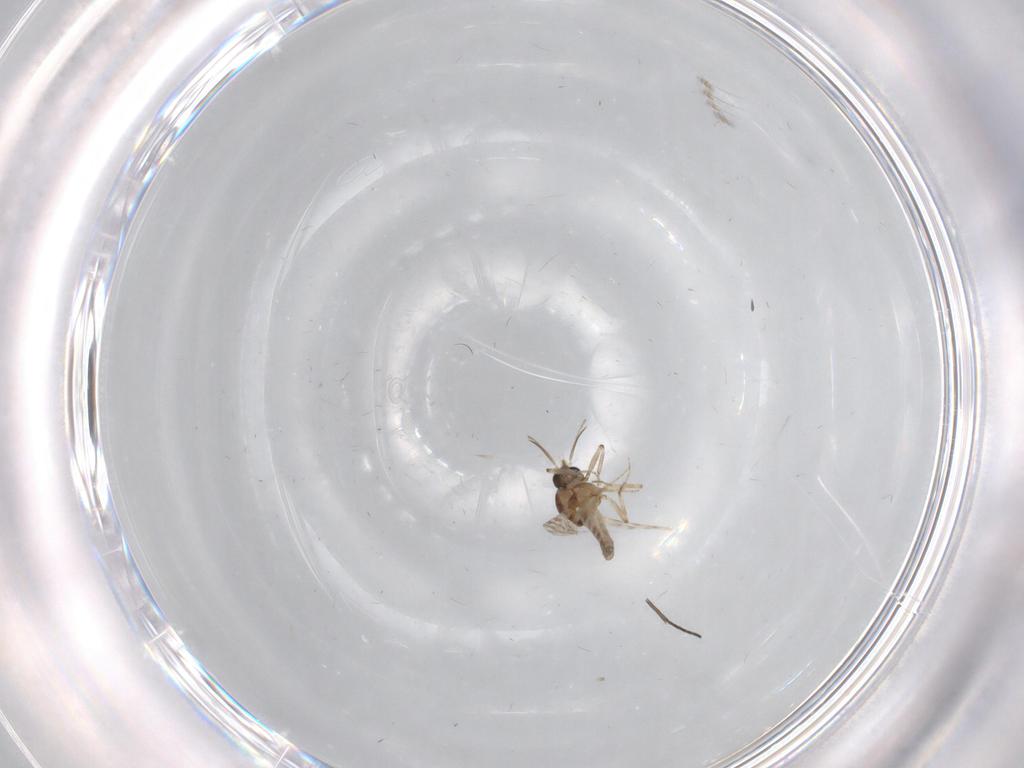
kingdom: Animalia
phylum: Arthropoda
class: Insecta
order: Diptera
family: Ceratopogonidae
